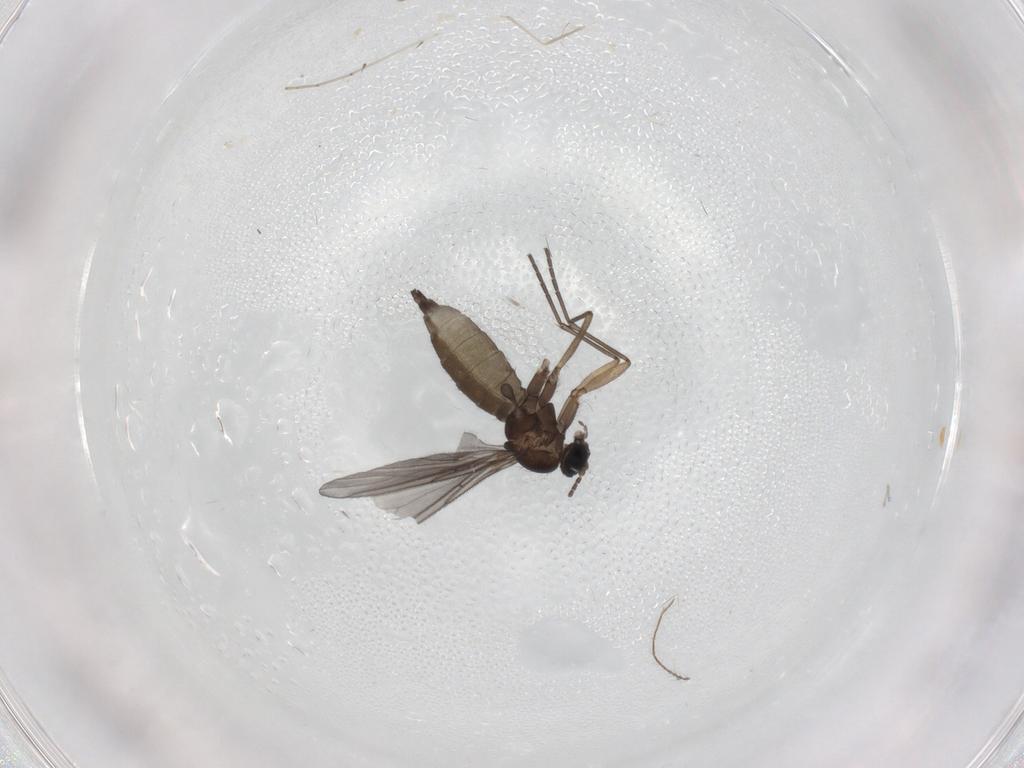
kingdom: Animalia
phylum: Arthropoda
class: Insecta
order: Diptera
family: Sciaridae
